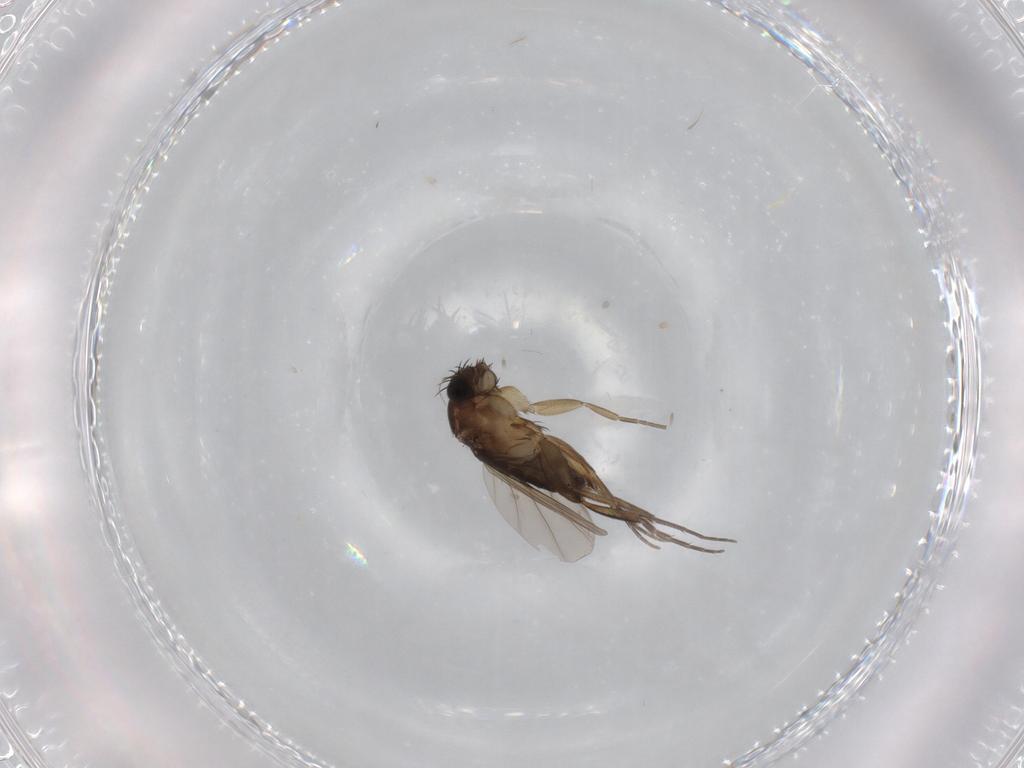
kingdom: Animalia
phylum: Arthropoda
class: Insecta
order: Diptera
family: Phoridae
